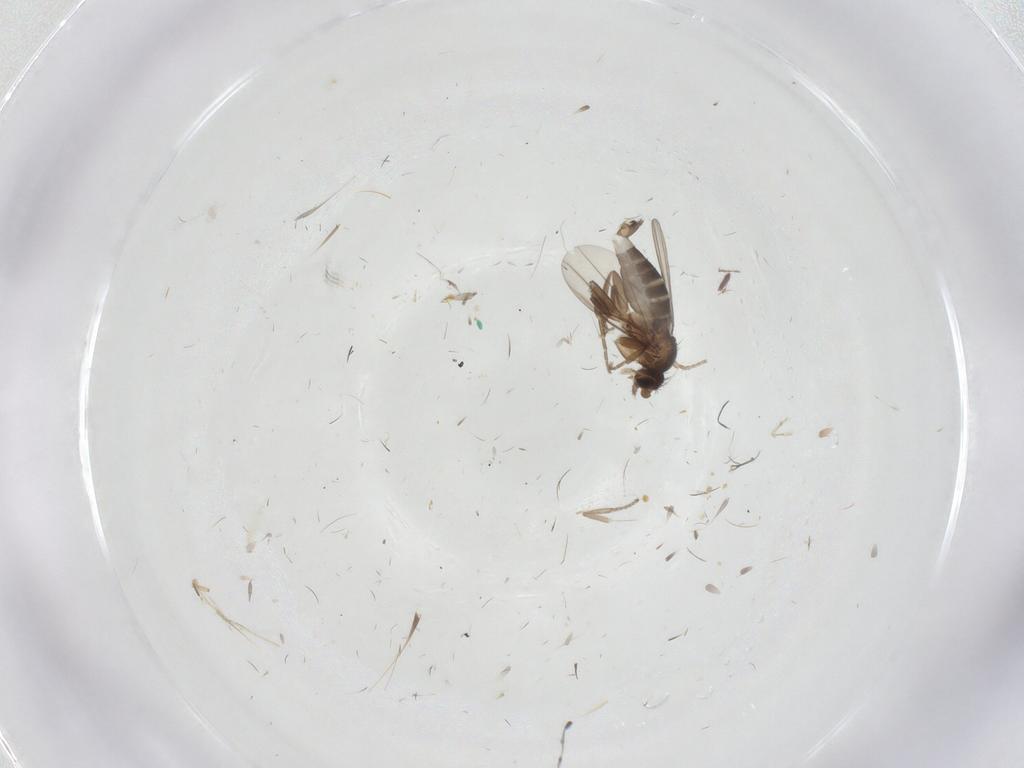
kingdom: Animalia
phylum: Arthropoda
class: Insecta
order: Diptera
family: Psychodidae
